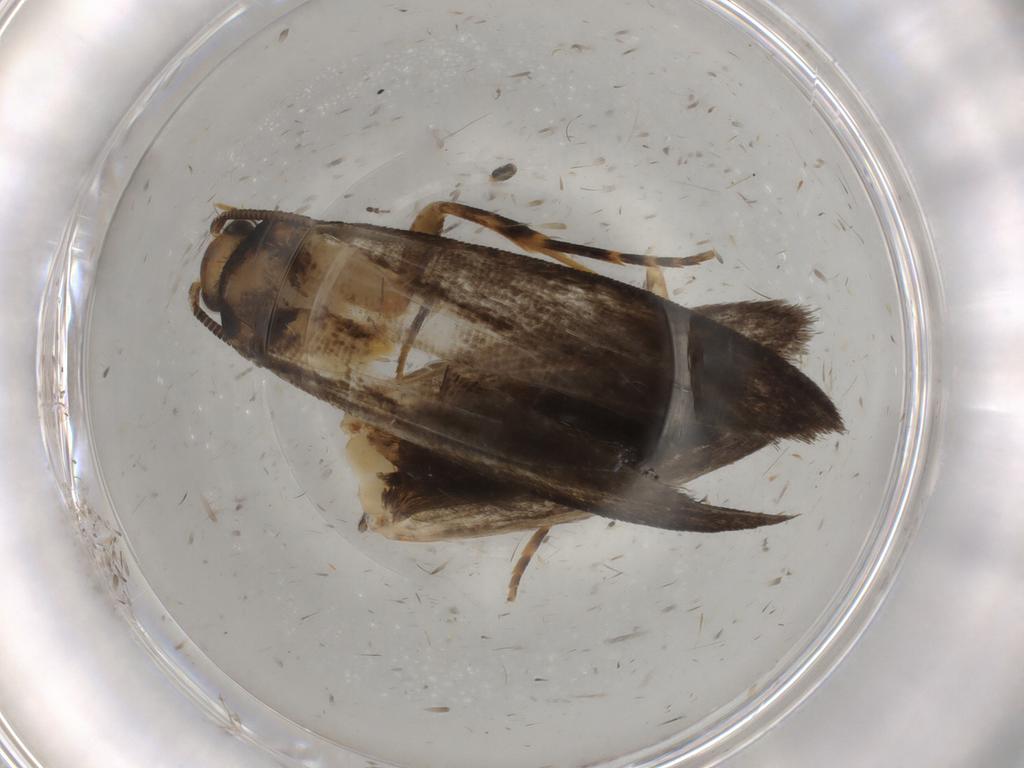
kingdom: Animalia
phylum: Arthropoda
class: Insecta
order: Lepidoptera
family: Tineidae
